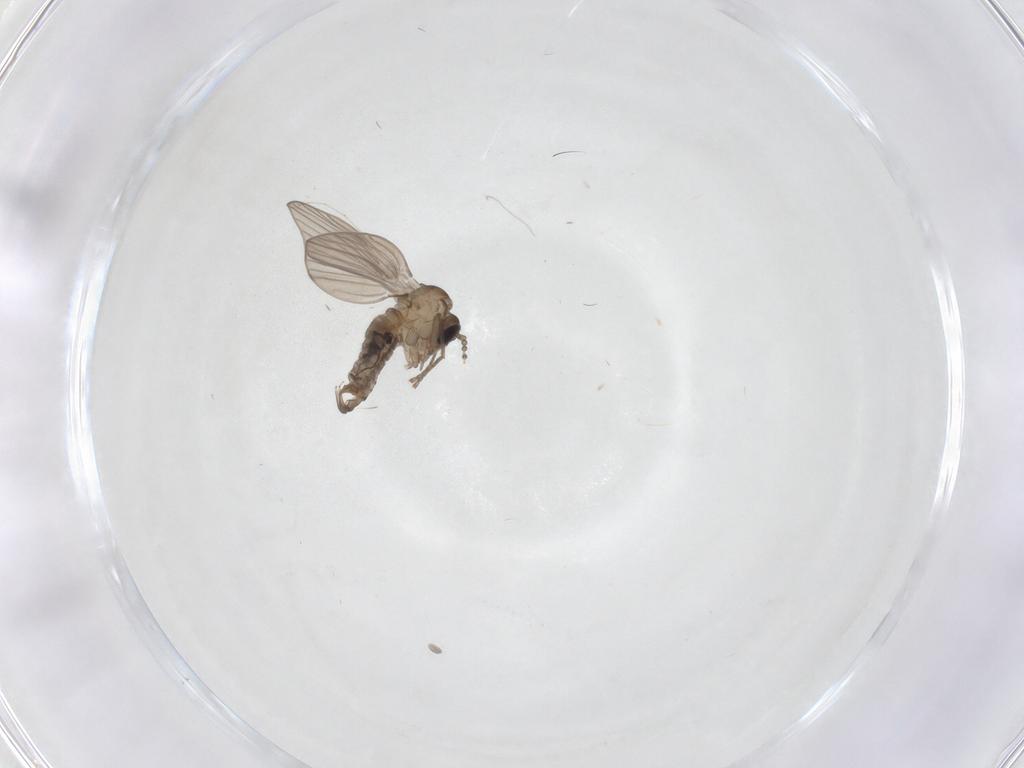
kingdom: Animalia
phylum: Arthropoda
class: Insecta
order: Diptera
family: Psychodidae
